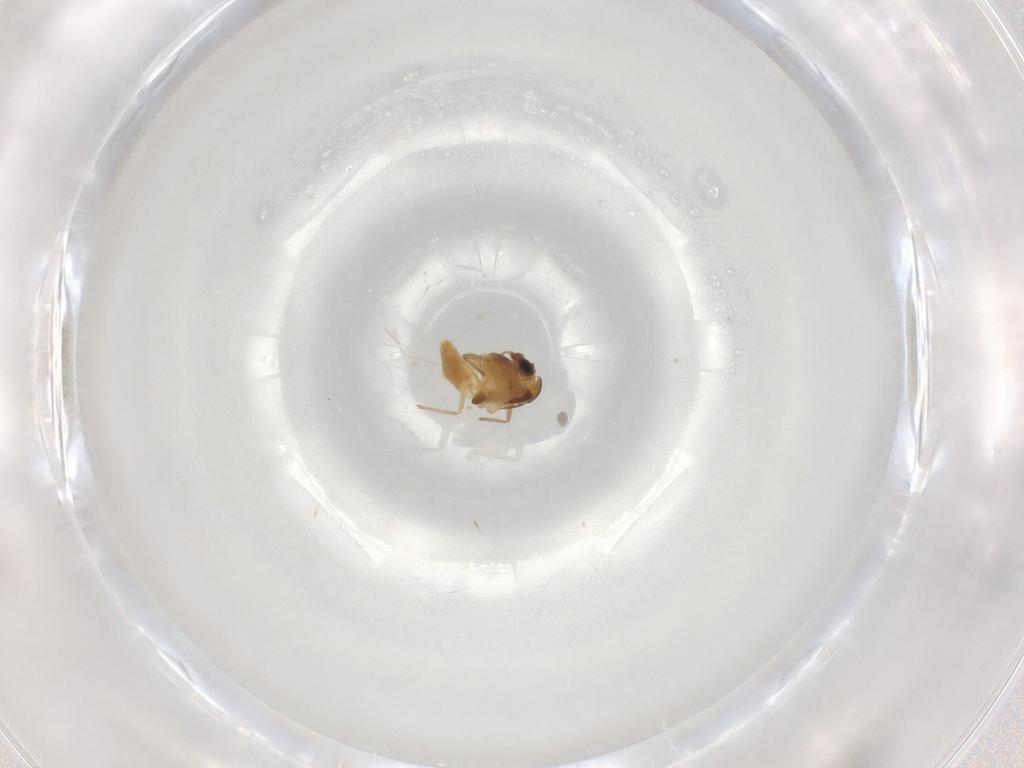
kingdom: Animalia
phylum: Arthropoda
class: Insecta
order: Diptera
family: Chironomidae
